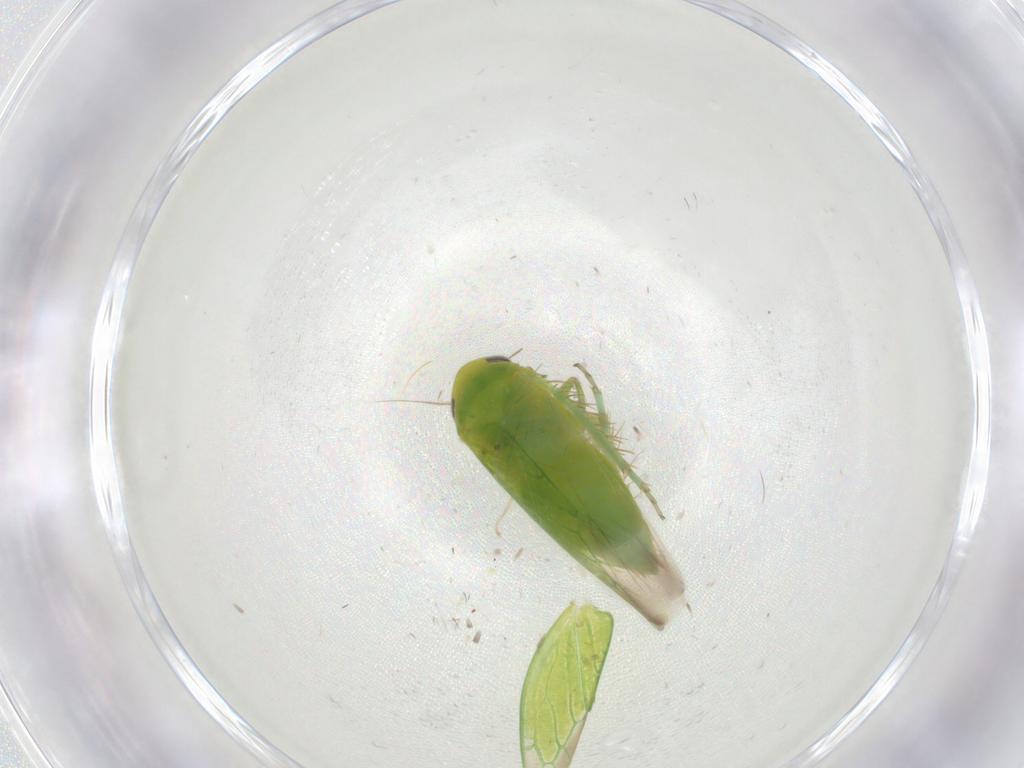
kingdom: Animalia
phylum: Arthropoda
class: Insecta
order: Hemiptera
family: Cicadellidae
